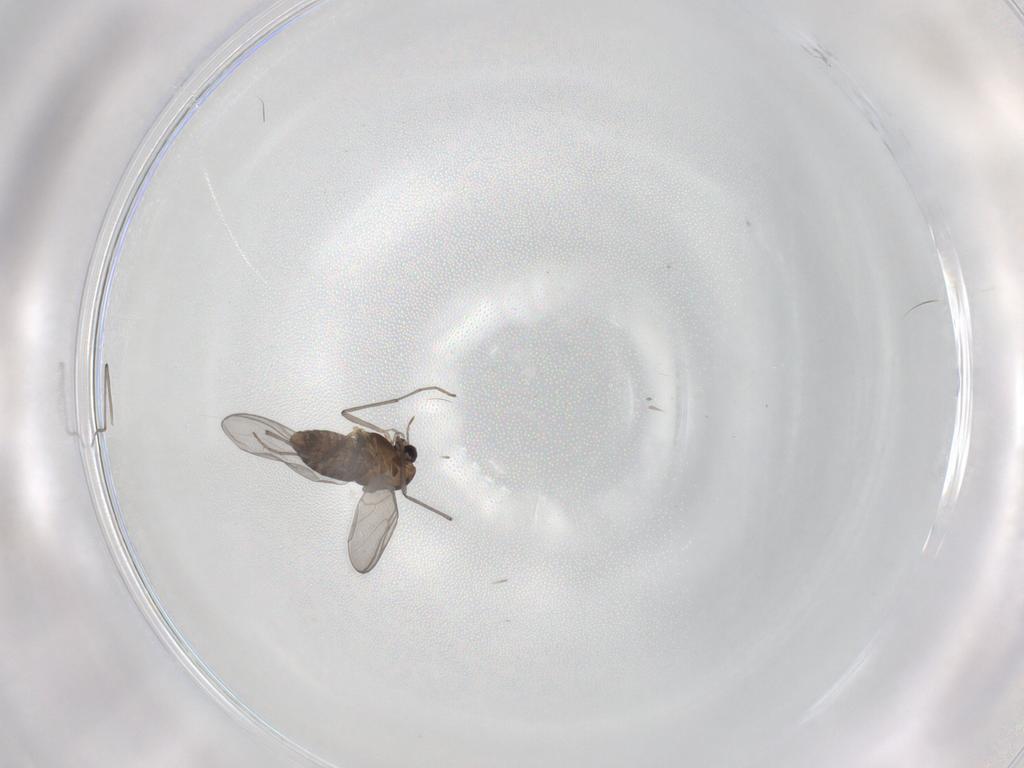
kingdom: Animalia
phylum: Arthropoda
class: Insecta
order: Diptera
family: Chironomidae
